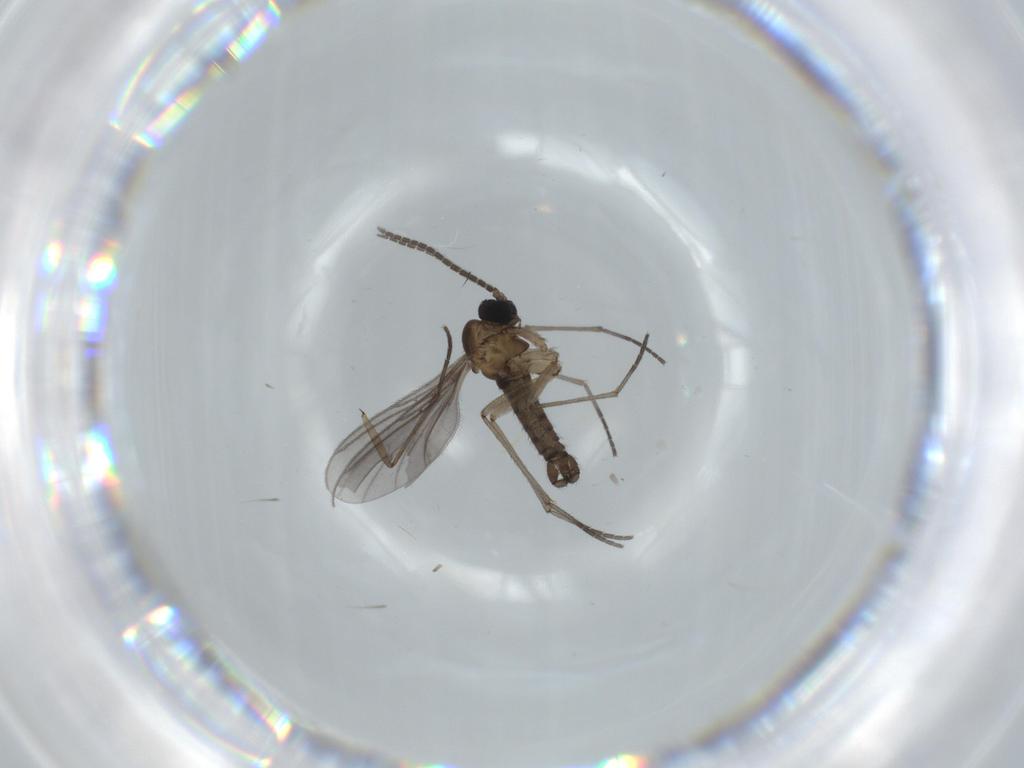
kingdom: Animalia
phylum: Arthropoda
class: Insecta
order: Diptera
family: Sciaridae
